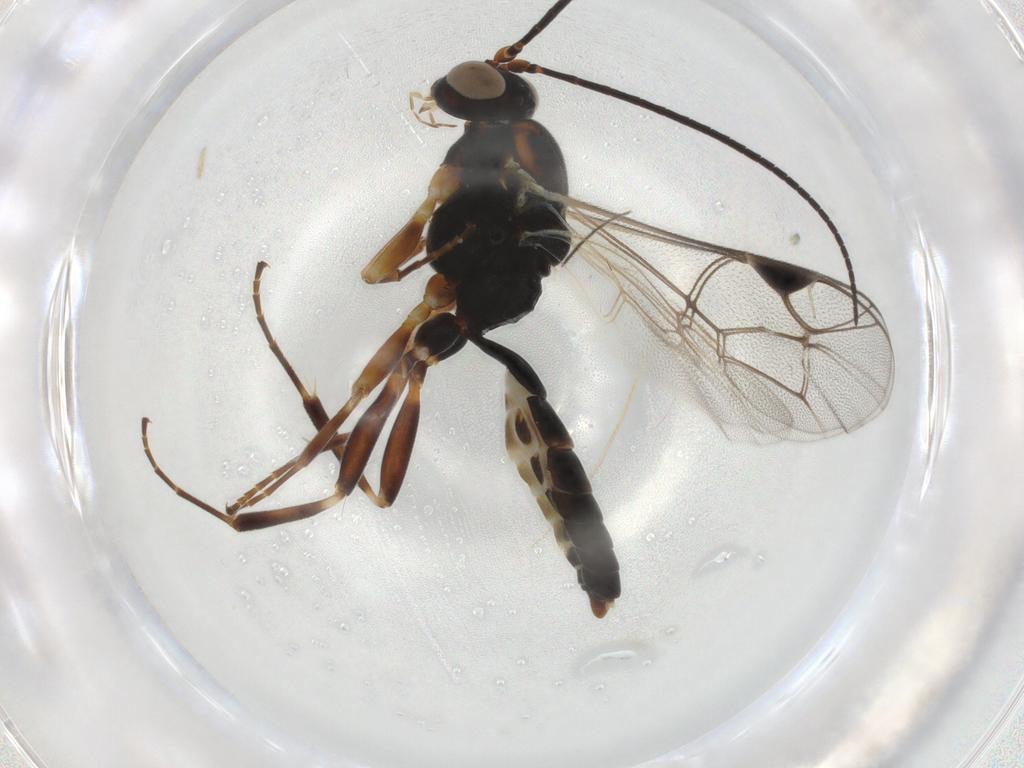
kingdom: Animalia
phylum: Arthropoda
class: Insecta
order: Hymenoptera
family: Ichneumonidae
